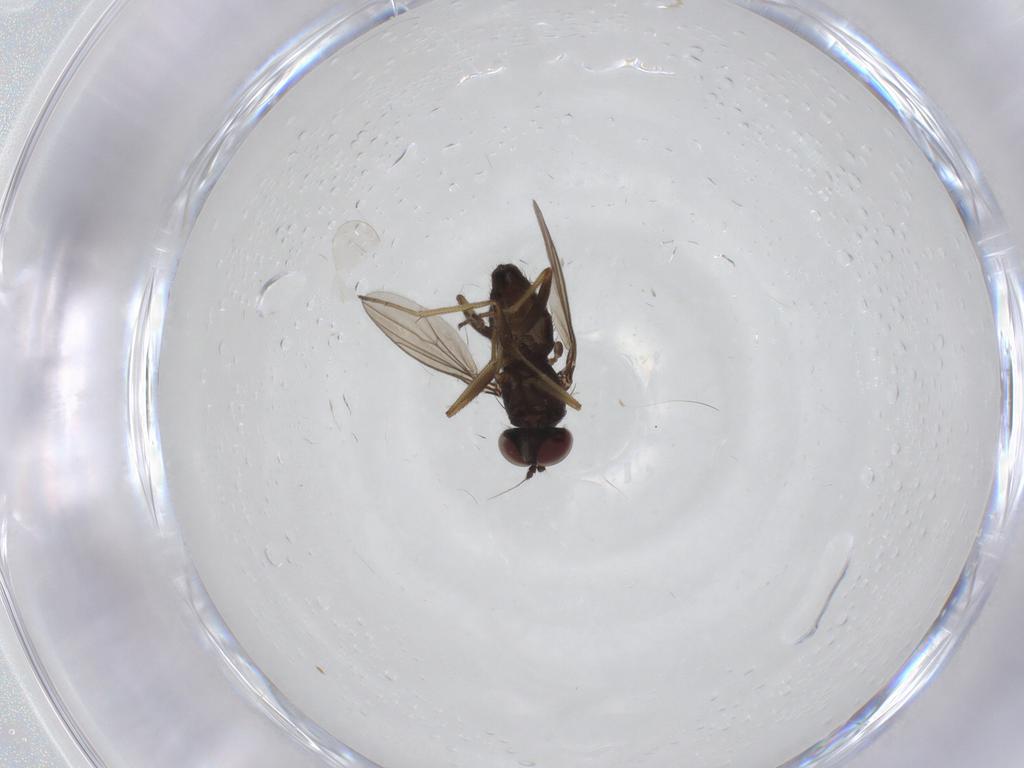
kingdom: Animalia
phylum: Arthropoda
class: Insecta
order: Diptera
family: Dolichopodidae
